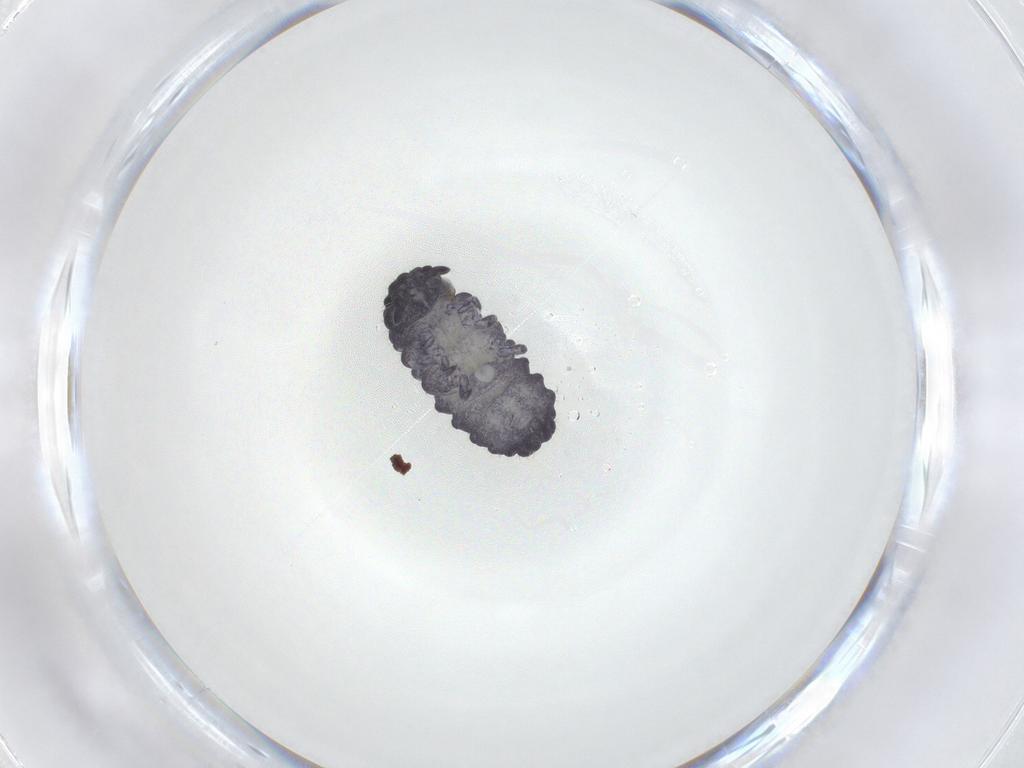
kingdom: Animalia
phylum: Arthropoda
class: Collembola
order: Poduromorpha
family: Neanuridae
